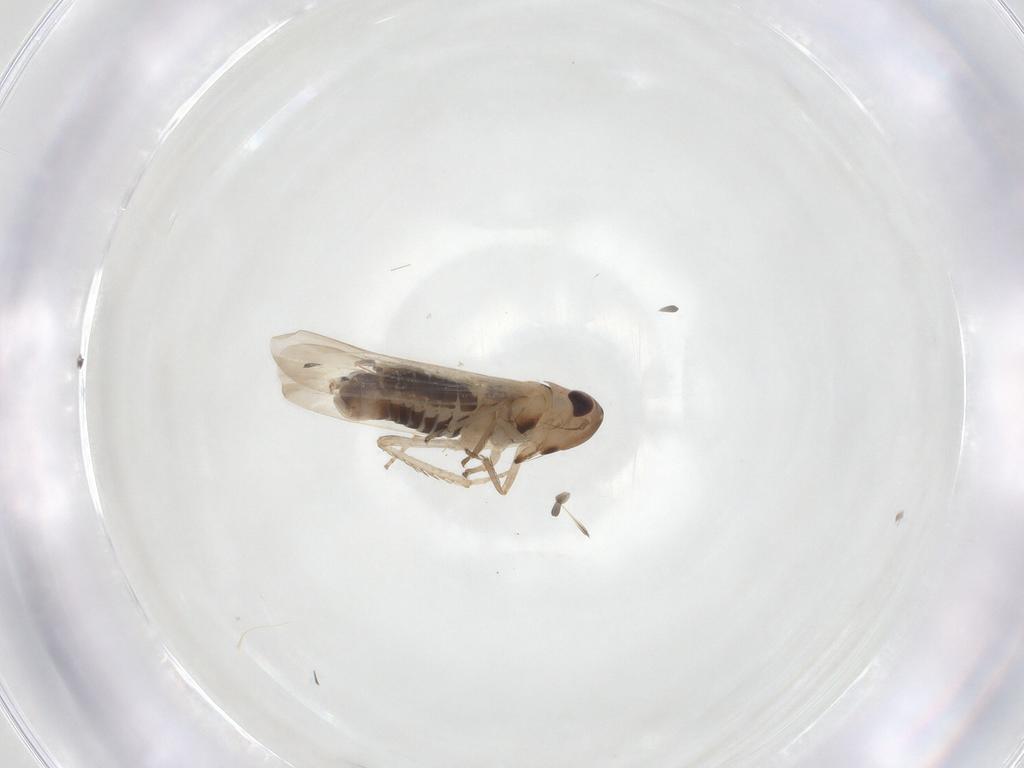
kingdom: Animalia
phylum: Arthropoda
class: Insecta
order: Hemiptera
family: Cicadellidae
